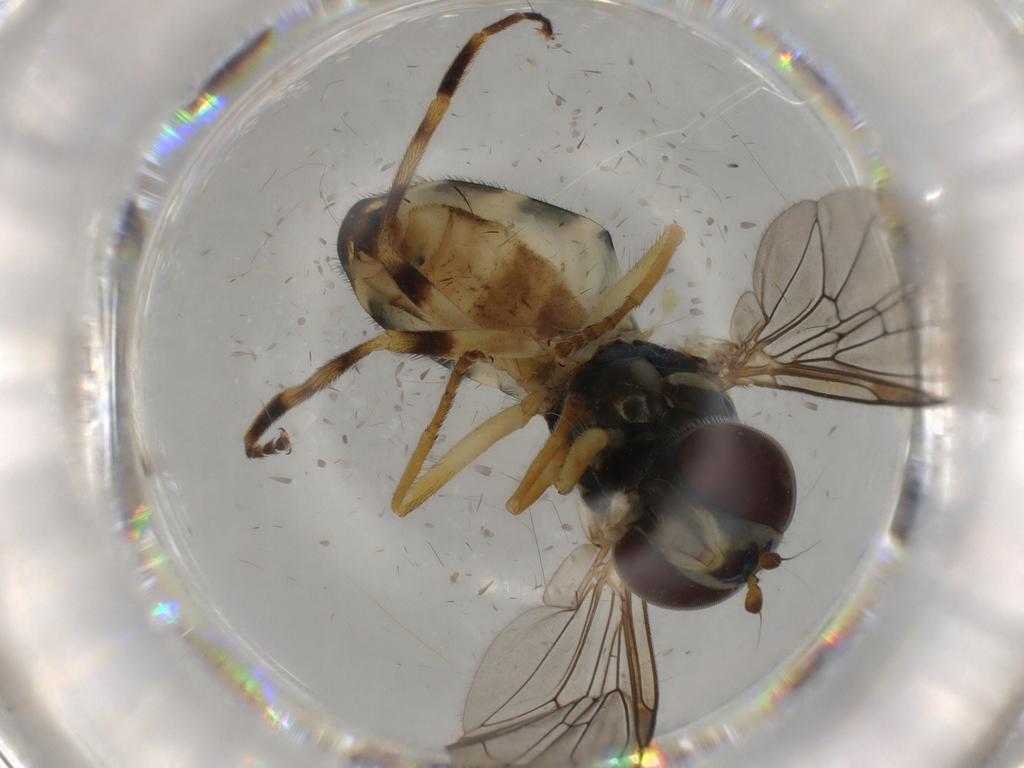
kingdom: Animalia
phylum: Arthropoda
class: Insecta
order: Diptera
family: Syrphidae
